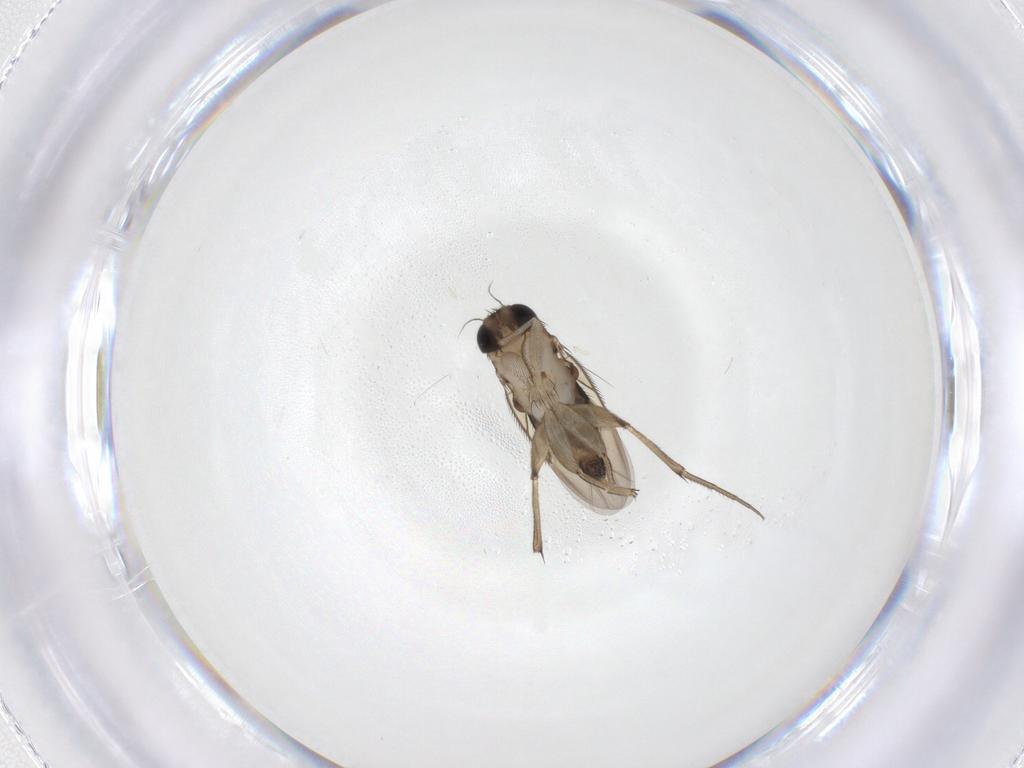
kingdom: Animalia
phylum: Arthropoda
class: Insecta
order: Diptera
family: Phoridae
